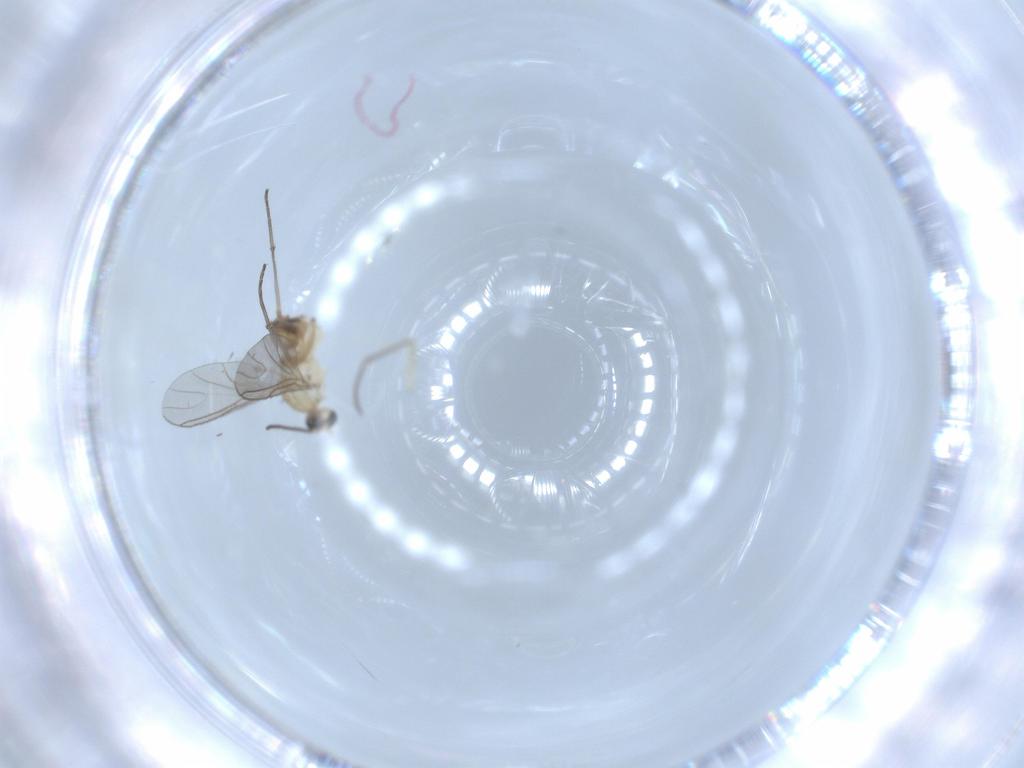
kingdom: Animalia
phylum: Arthropoda
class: Insecta
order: Diptera
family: Sciaridae
